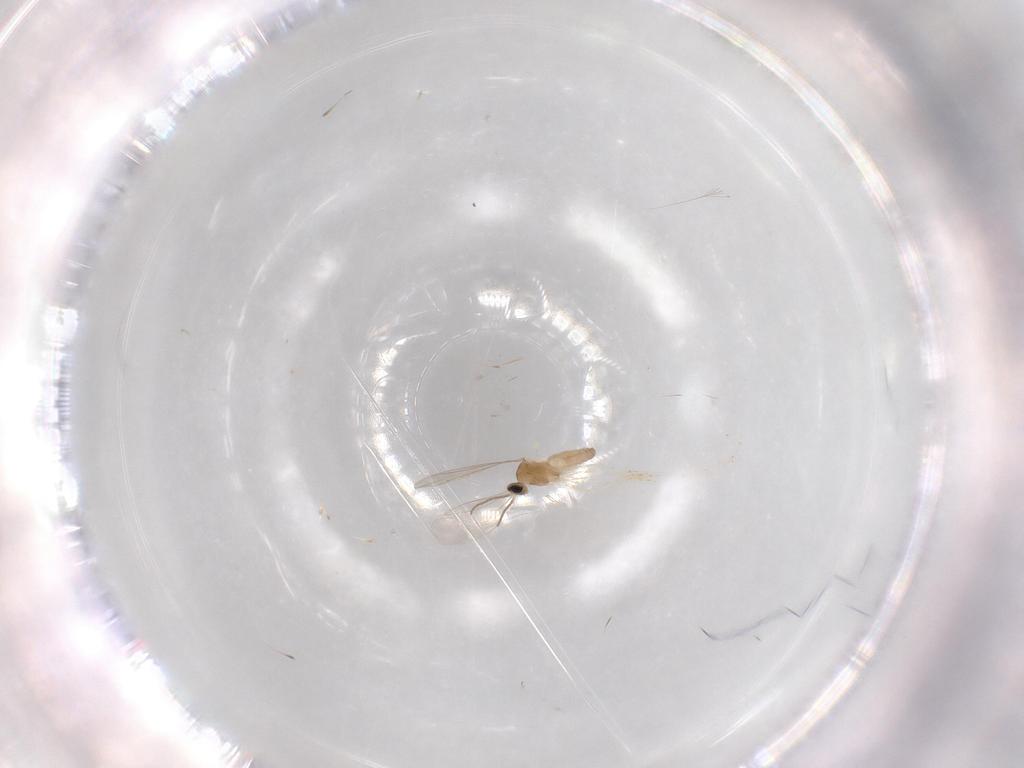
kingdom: Animalia
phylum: Arthropoda
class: Insecta
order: Diptera
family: Cecidomyiidae
